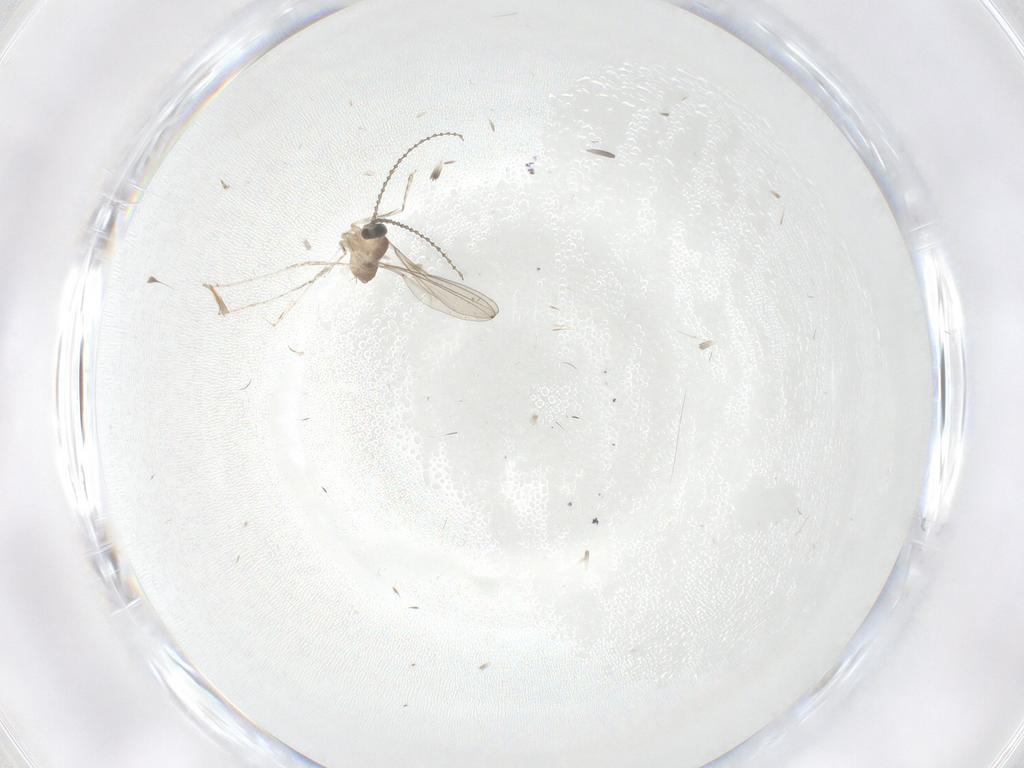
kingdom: Animalia
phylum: Arthropoda
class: Insecta
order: Diptera
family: Cecidomyiidae
